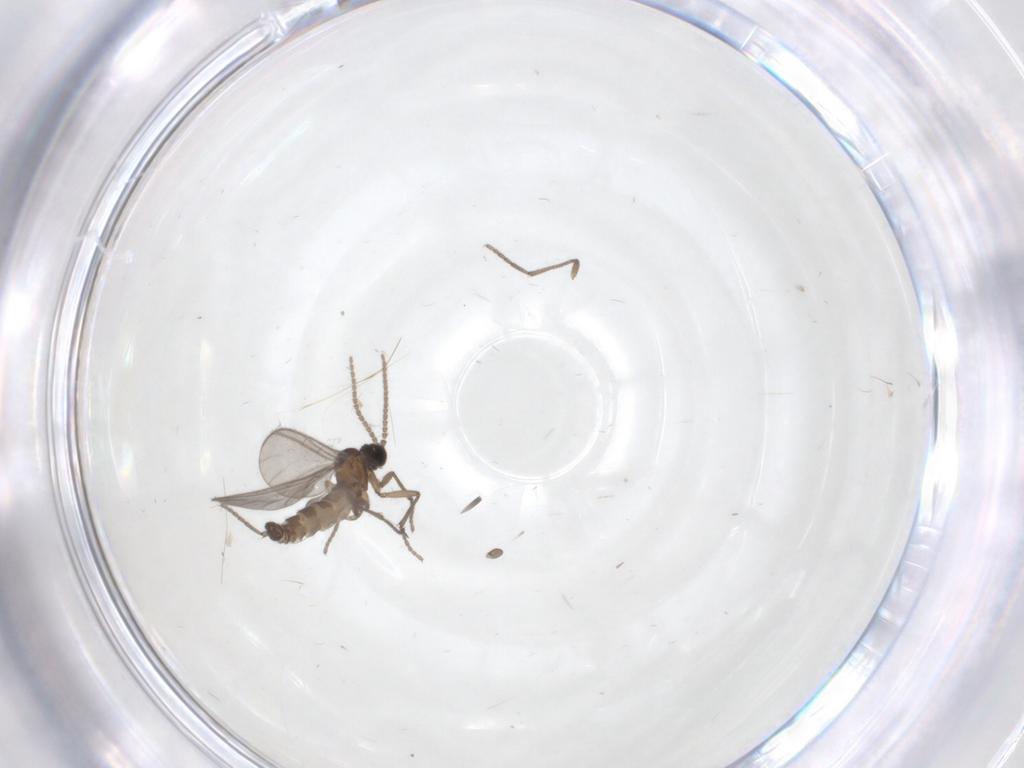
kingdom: Animalia
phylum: Arthropoda
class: Insecta
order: Diptera
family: Sciaridae
